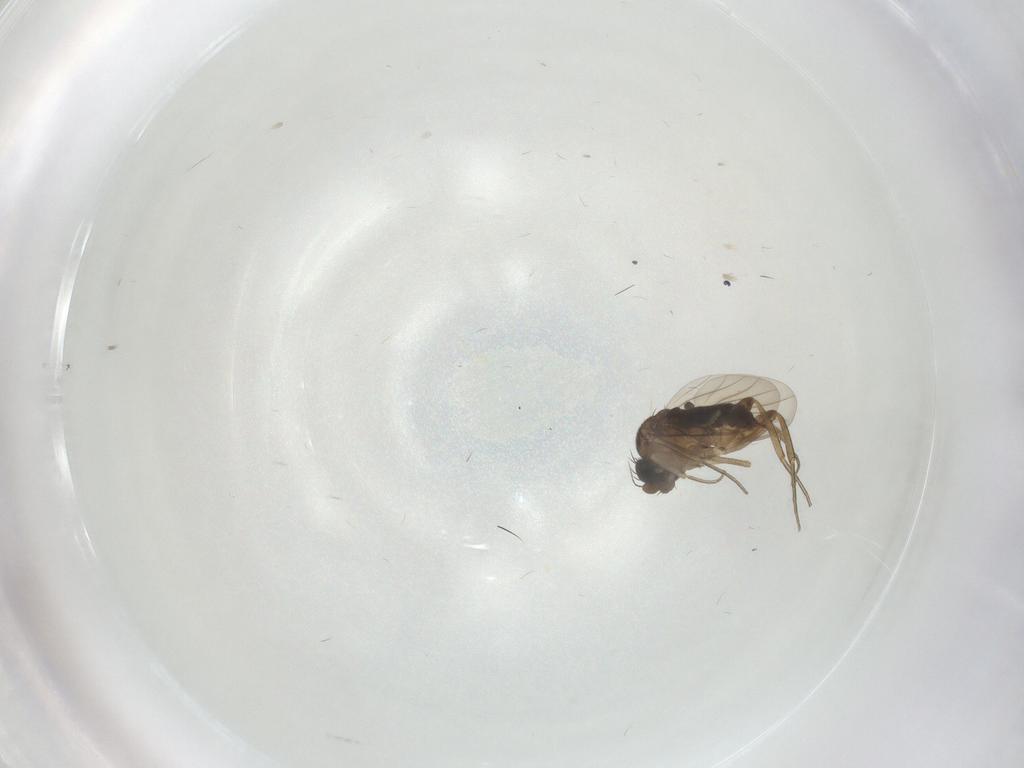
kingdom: Animalia
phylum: Arthropoda
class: Insecta
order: Diptera
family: Psychodidae
